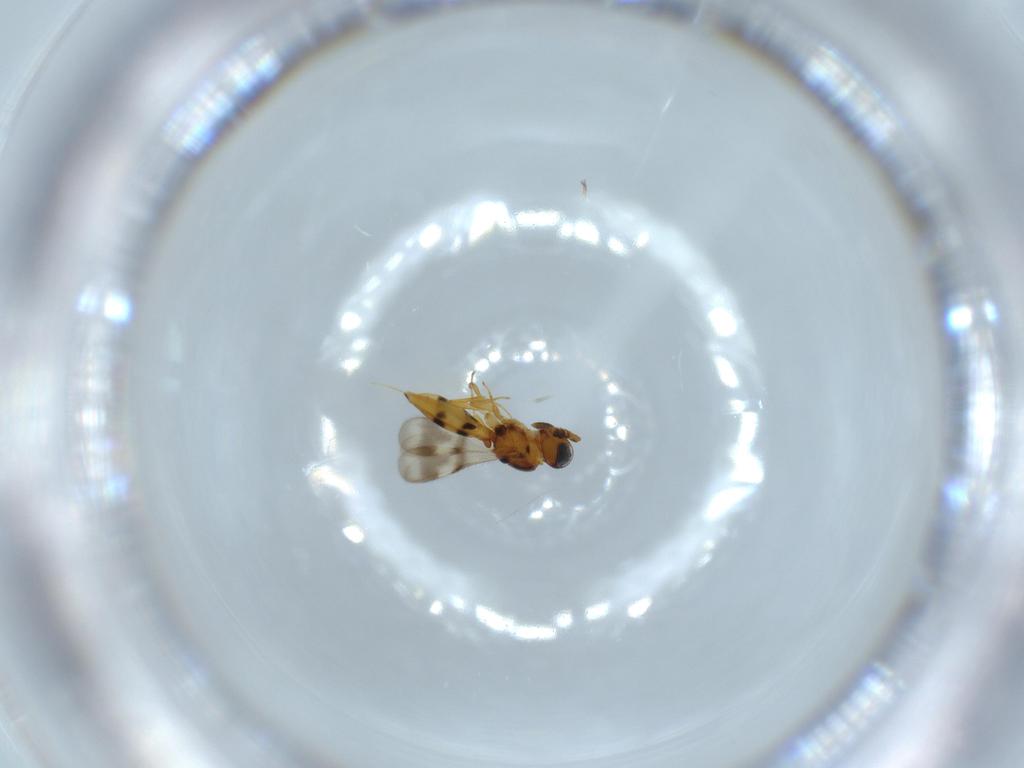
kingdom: Animalia
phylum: Arthropoda
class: Insecta
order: Hymenoptera
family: Scelionidae
